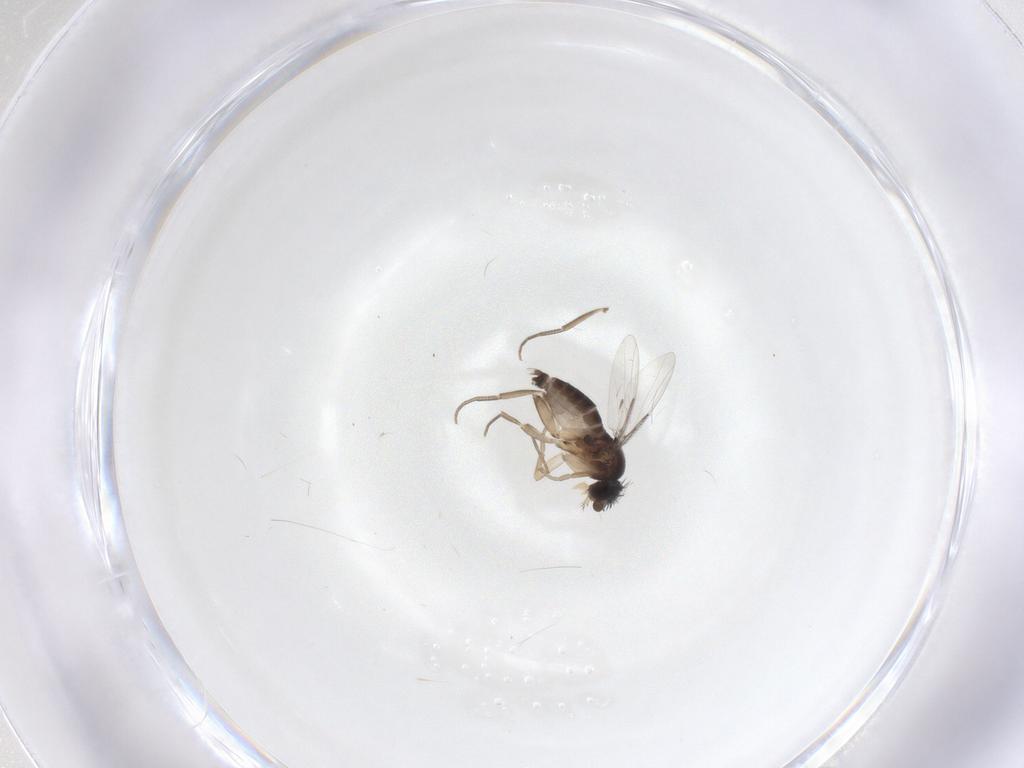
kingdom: Animalia
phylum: Arthropoda
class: Insecta
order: Diptera
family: Phoridae
